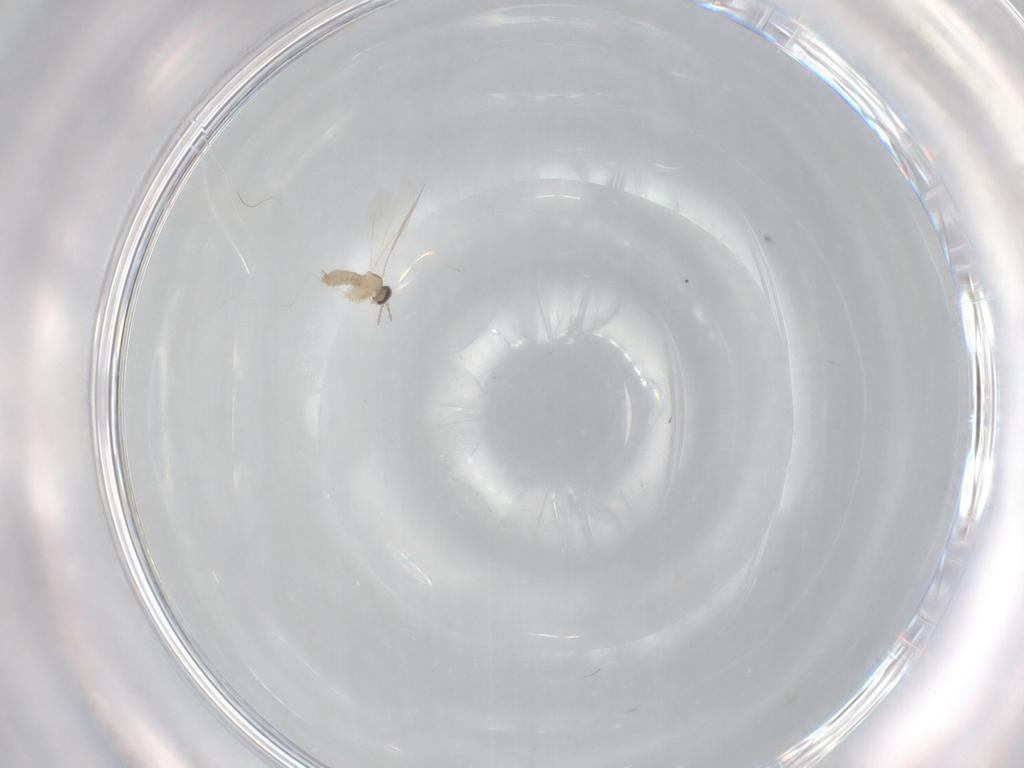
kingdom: Animalia
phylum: Arthropoda
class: Insecta
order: Diptera
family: Cecidomyiidae
